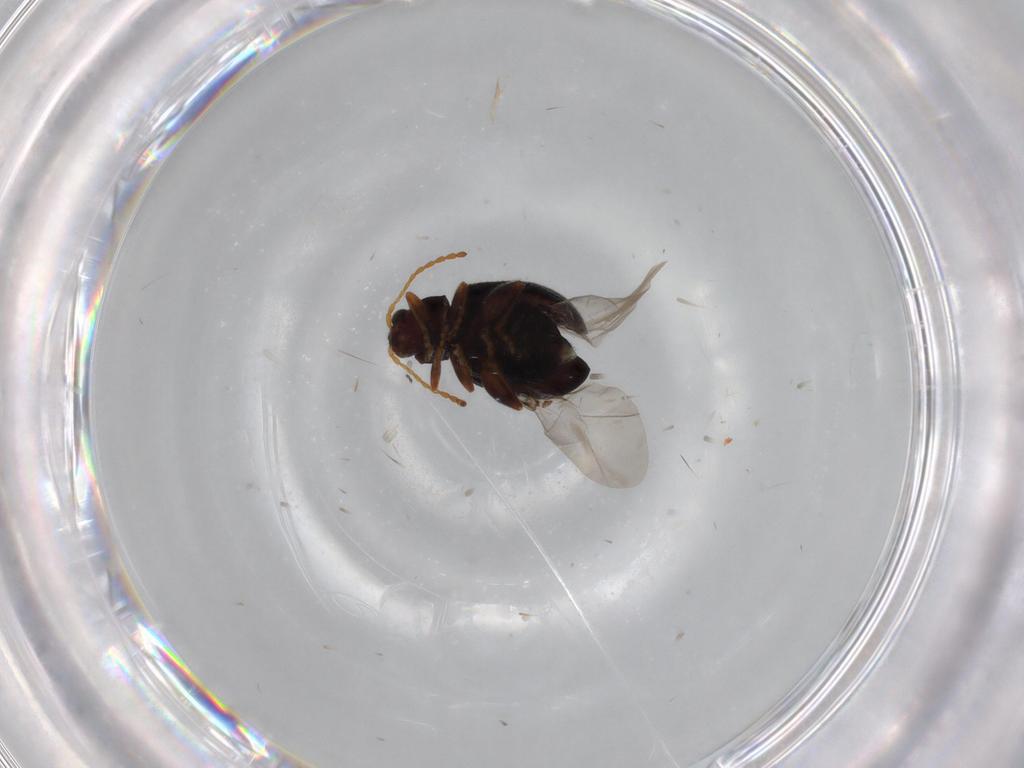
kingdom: Animalia
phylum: Arthropoda
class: Insecta
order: Coleoptera
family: Chrysomelidae
